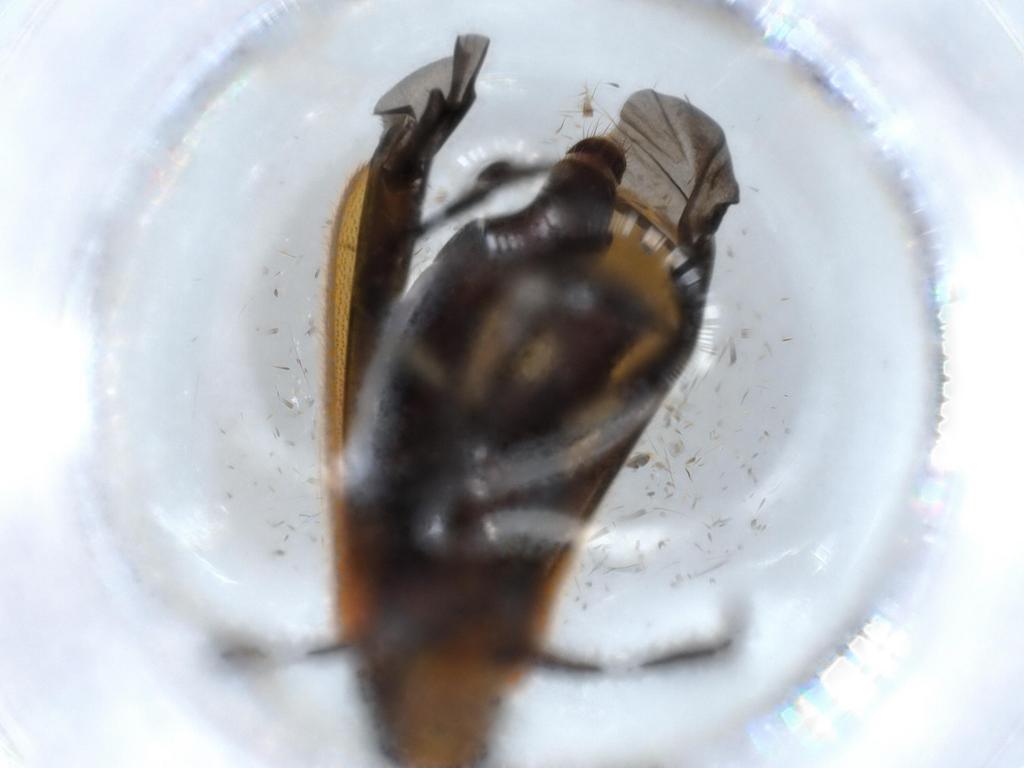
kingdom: Animalia
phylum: Arthropoda
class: Insecta
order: Coleoptera
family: Cleridae
